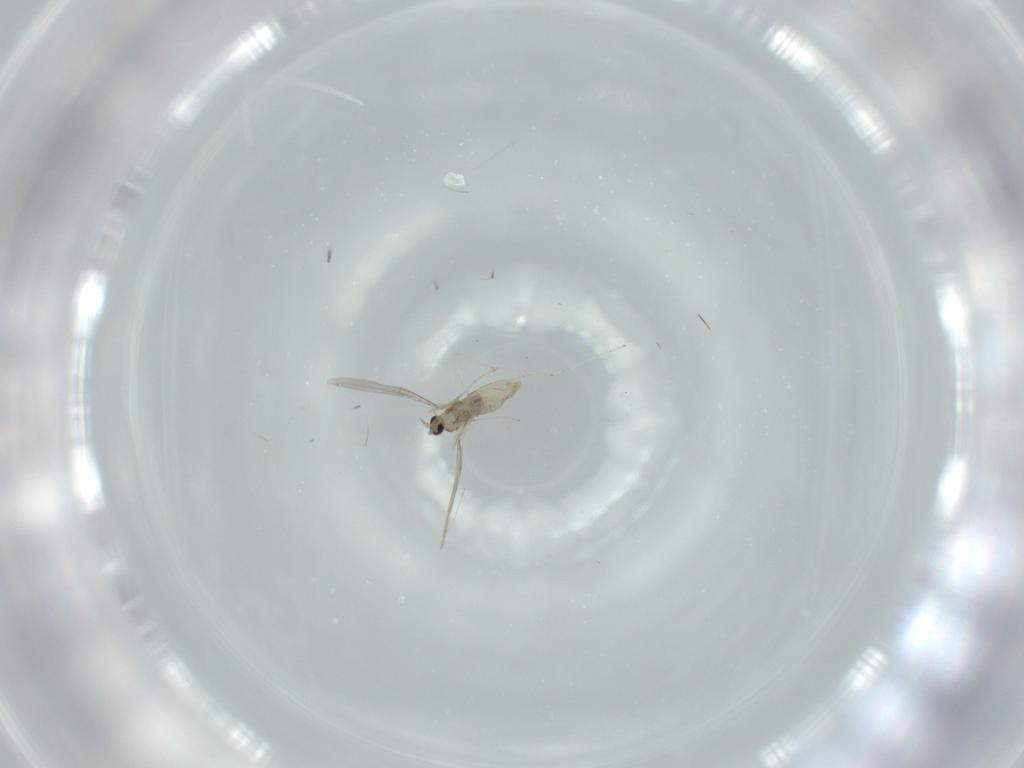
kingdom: Animalia
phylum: Arthropoda
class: Insecta
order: Diptera
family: Cecidomyiidae
